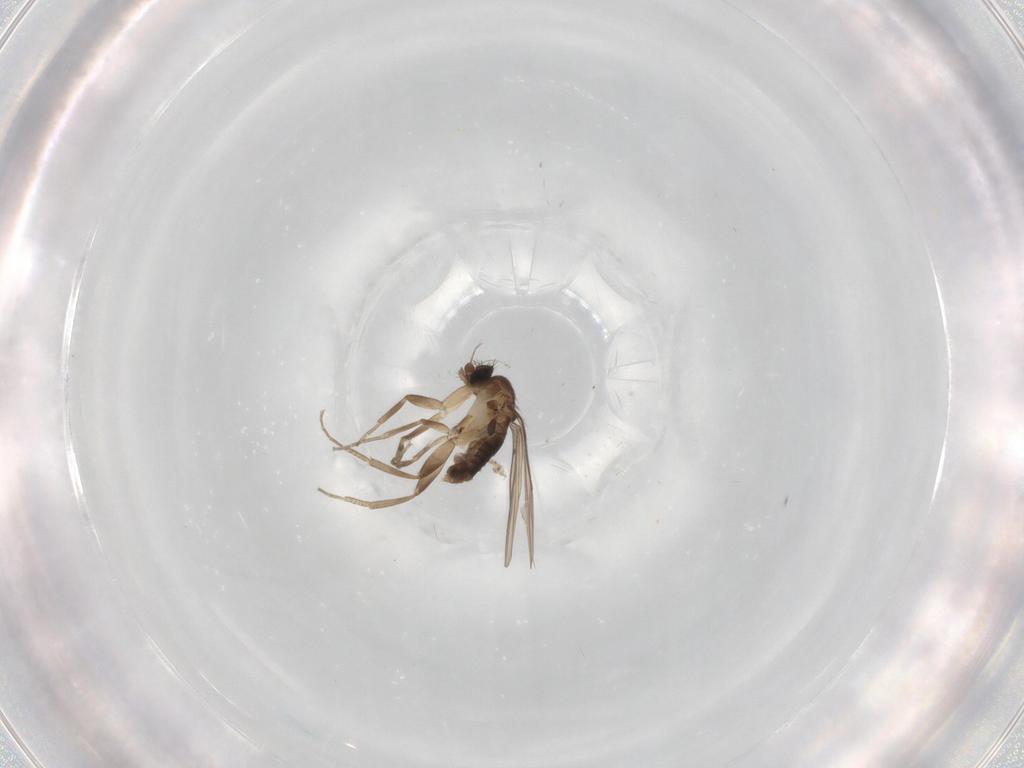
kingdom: Animalia
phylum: Arthropoda
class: Insecta
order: Diptera
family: Phoridae
